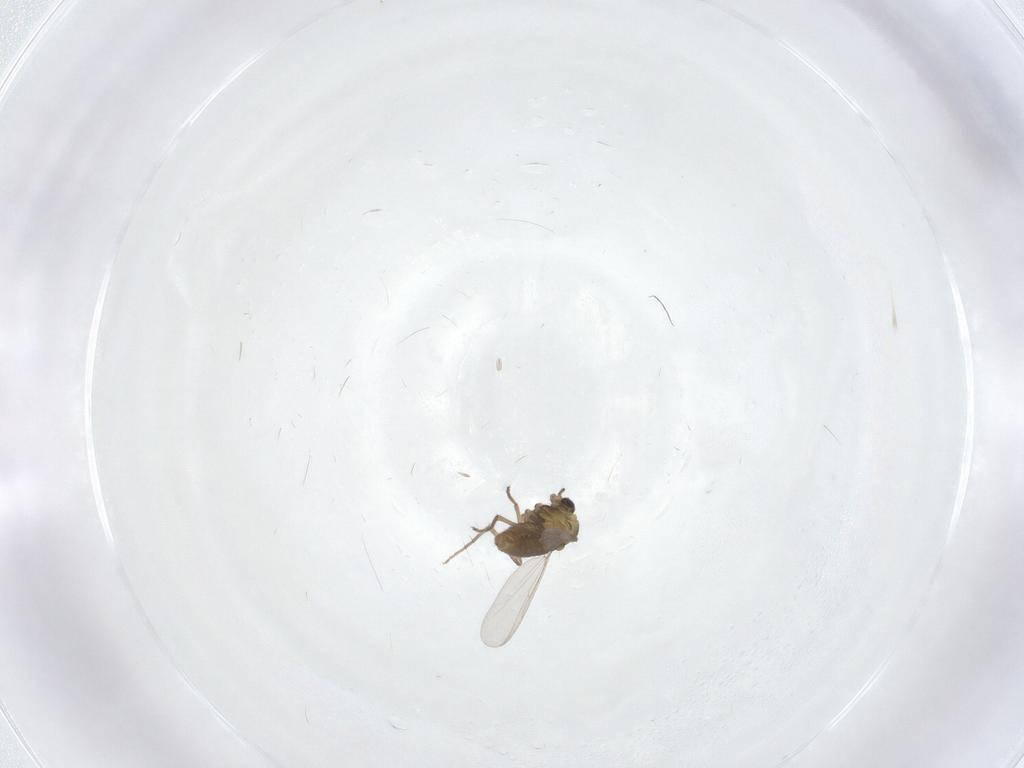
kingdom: Animalia
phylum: Arthropoda
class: Insecta
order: Diptera
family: Chironomidae
